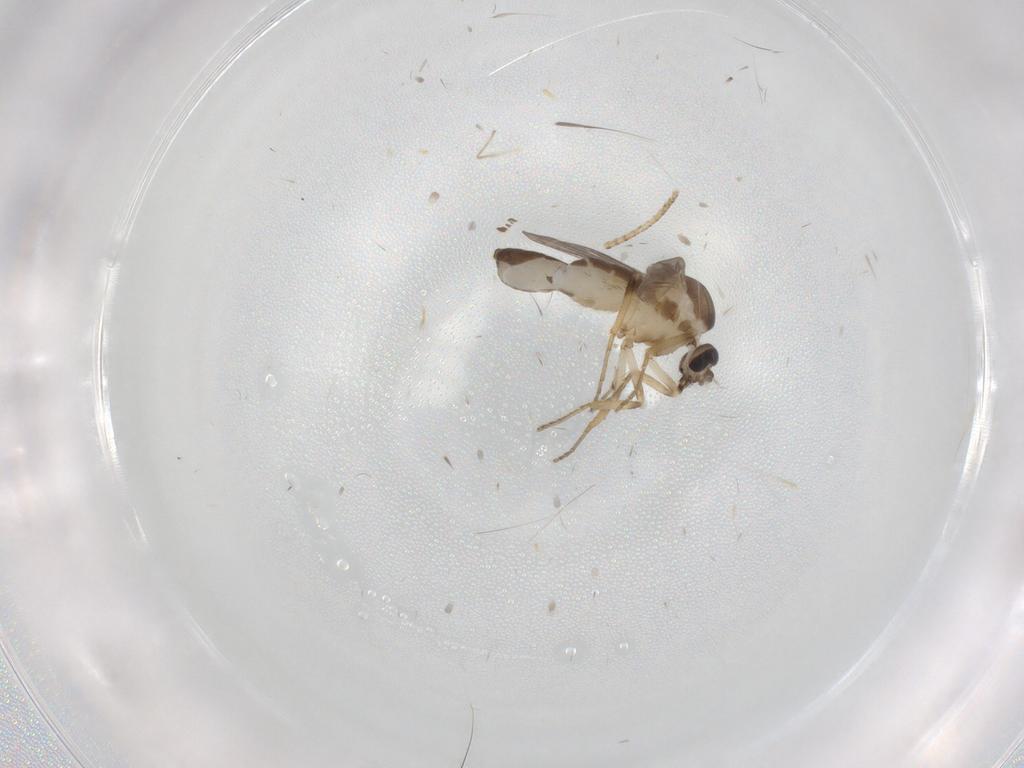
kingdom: Animalia
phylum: Arthropoda
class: Insecta
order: Diptera
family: Ceratopogonidae
